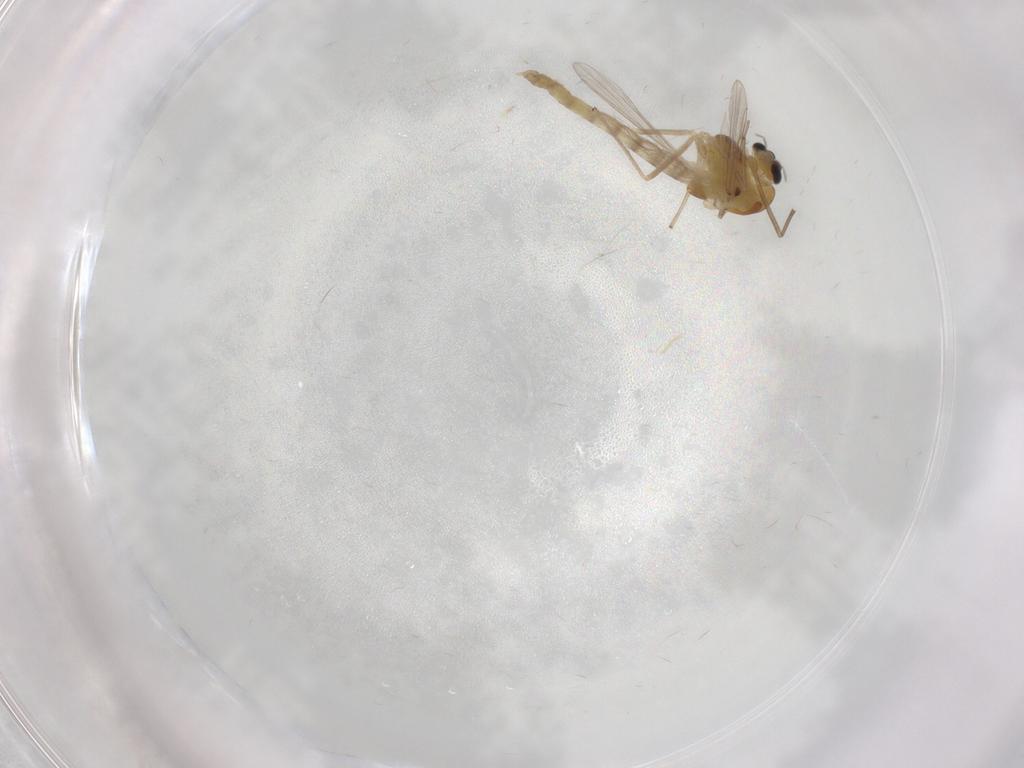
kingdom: Animalia
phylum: Arthropoda
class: Insecta
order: Diptera
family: Chironomidae
